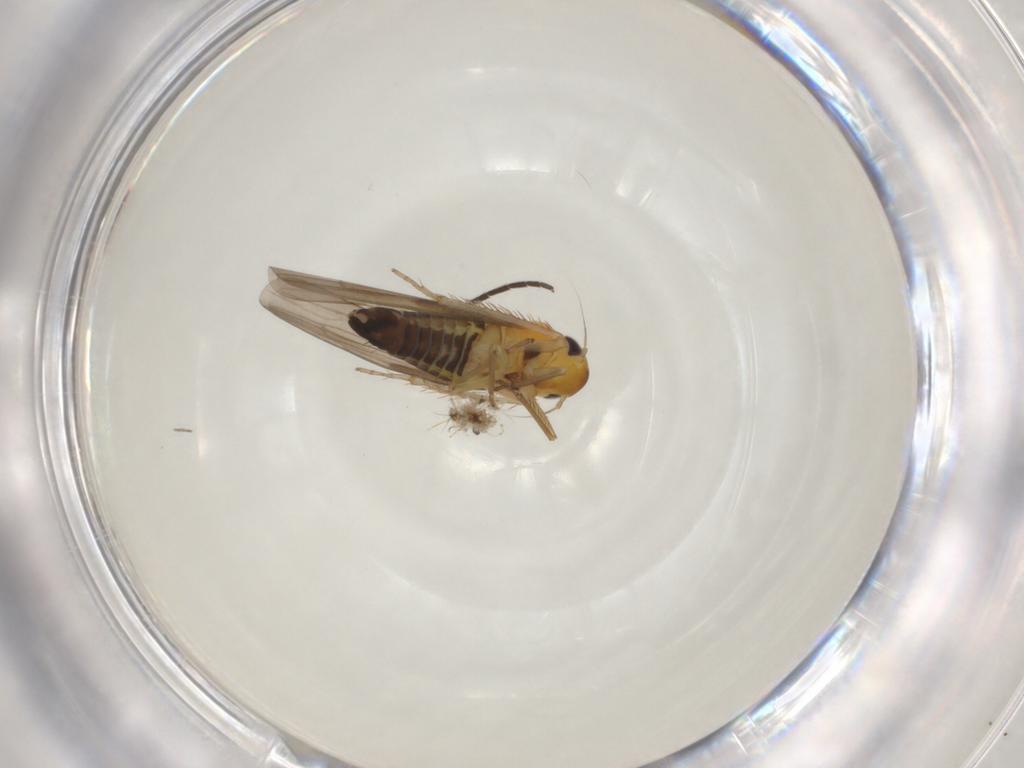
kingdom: Animalia
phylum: Arthropoda
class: Insecta
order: Hemiptera
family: Cicadellidae
